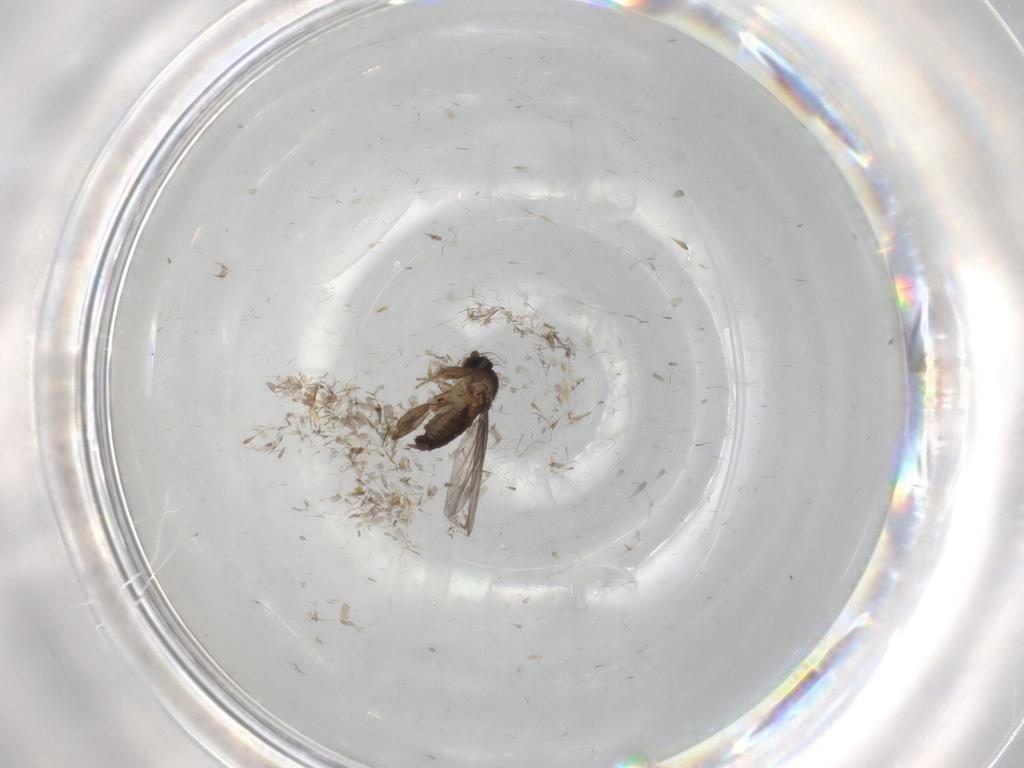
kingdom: Animalia
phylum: Arthropoda
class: Insecta
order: Diptera
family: Phoridae
